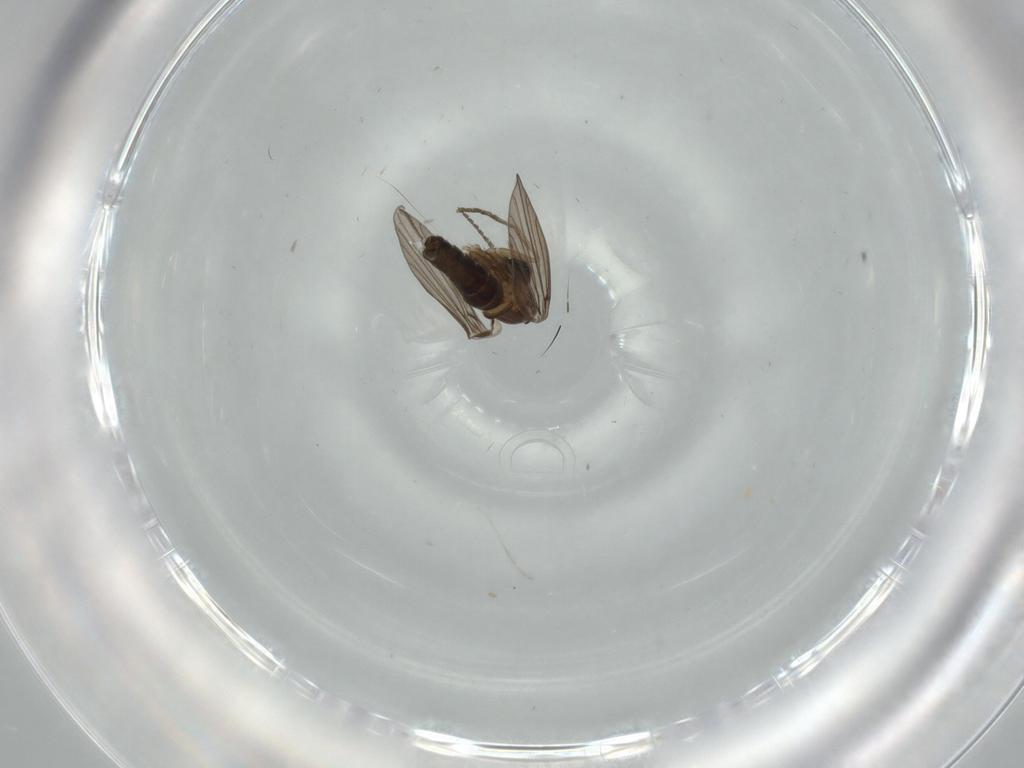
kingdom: Animalia
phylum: Arthropoda
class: Insecta
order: Diptera
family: Psychodidae
